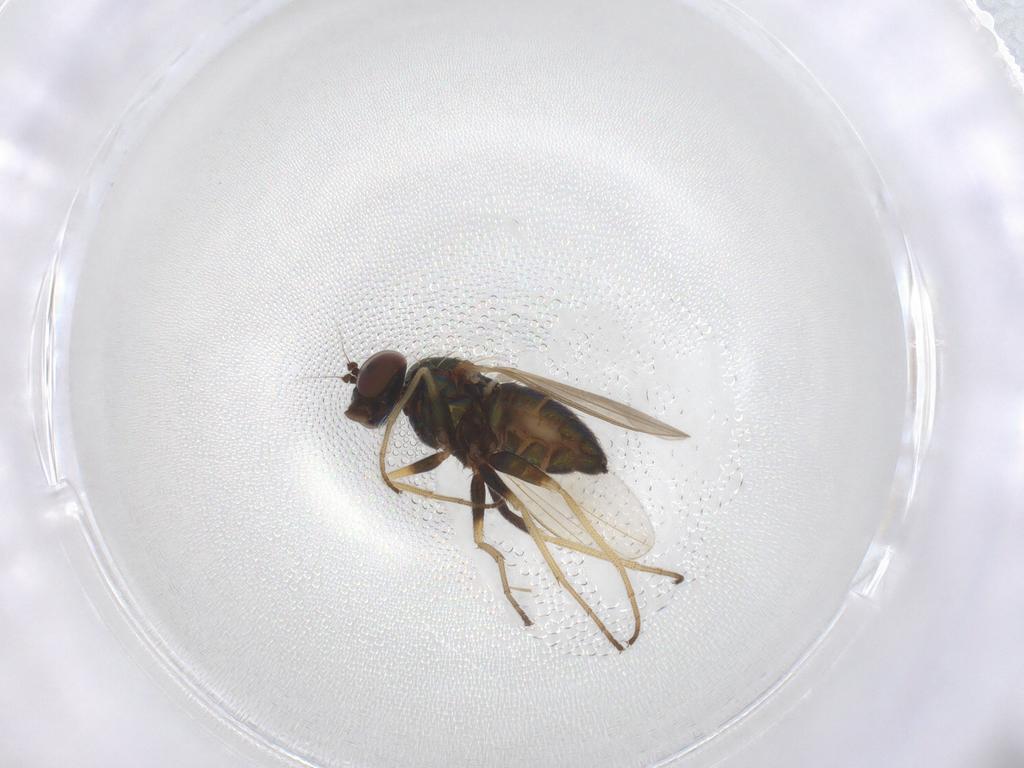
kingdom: Animalia
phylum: Arthropoda
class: Insecta
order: Diptera
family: Dolichopodidae
